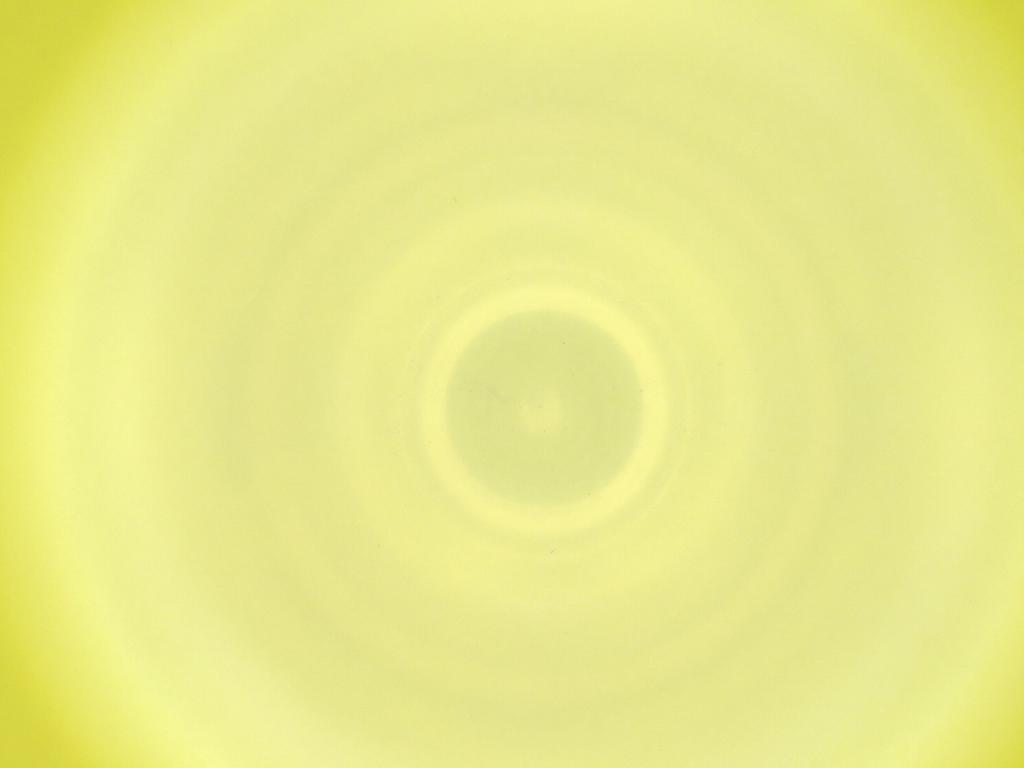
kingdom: Animalia
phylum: Arthropoda
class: Insecta
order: Diptera
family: Cecidomyiidae
